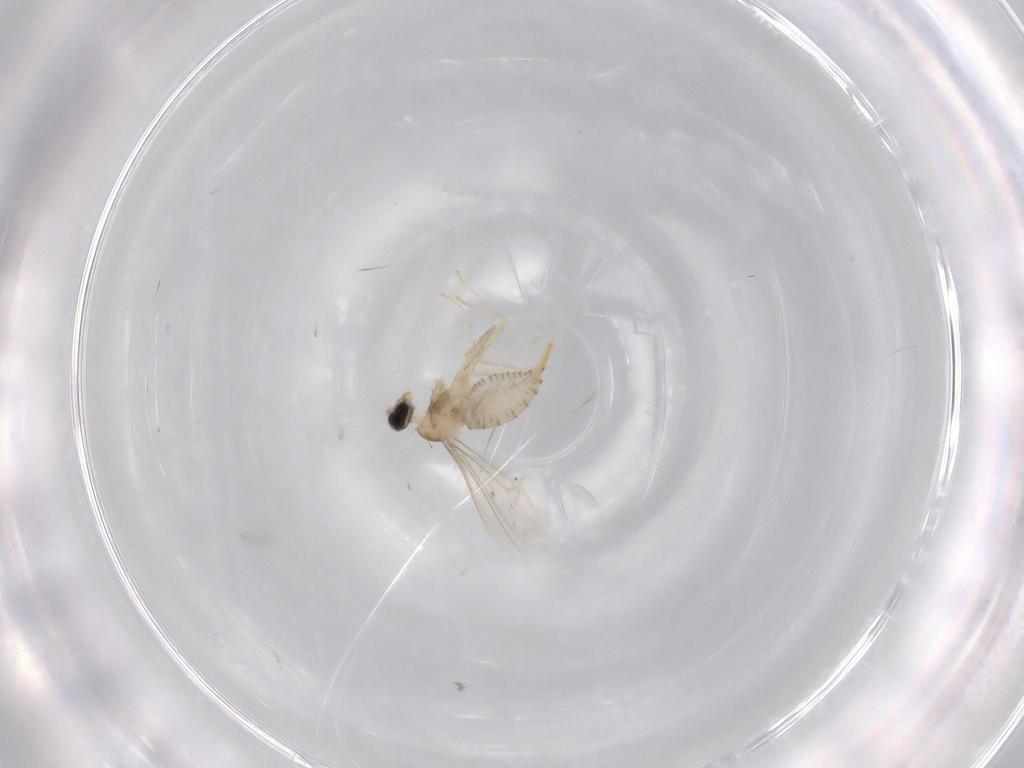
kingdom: Animalia
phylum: Arthropoda
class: Insecta
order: Diptera
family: Cecidomyiidae
